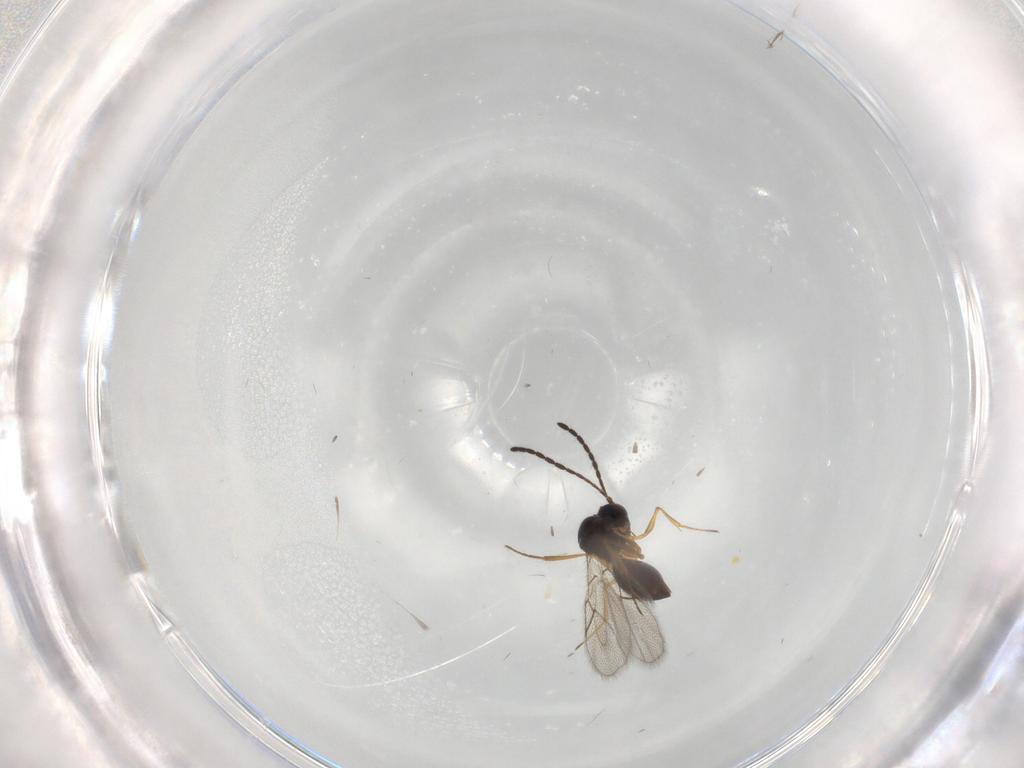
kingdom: Animalia
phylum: Arthropoda
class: Insecta
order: Hymenoptera
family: Figitidae
